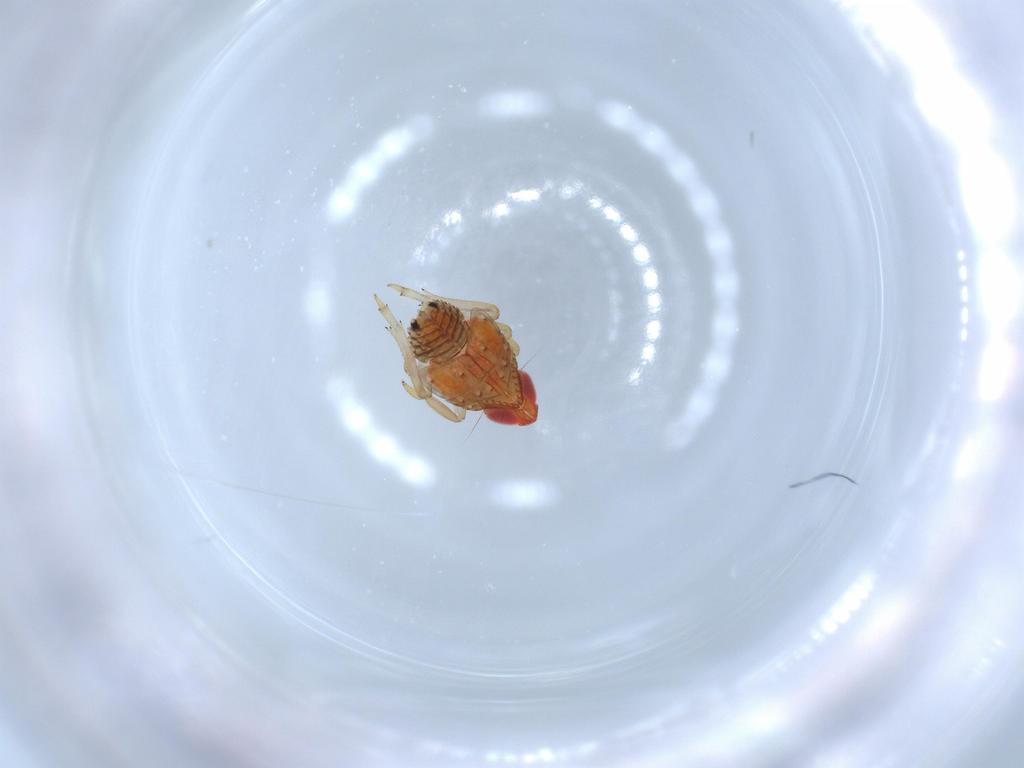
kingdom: Animalia
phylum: Arthropoda
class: Insecta
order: Hemiptera
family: Fulgoroidea_incertae_sedis
